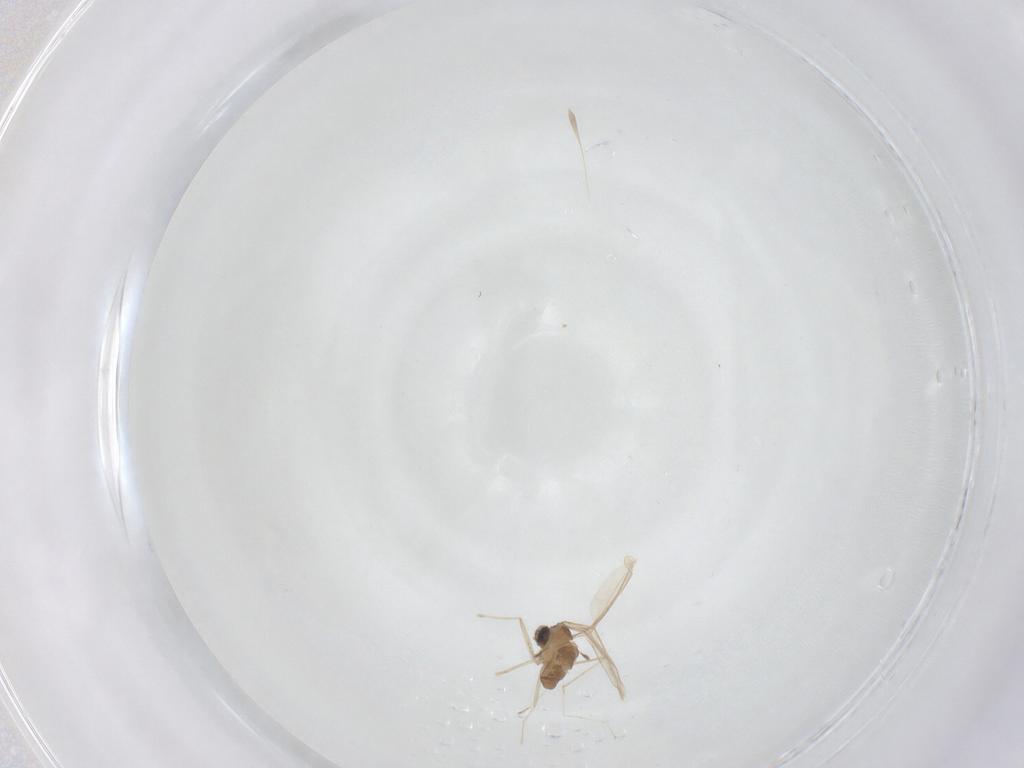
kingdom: Animalia
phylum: Arthropoda
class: Insecta
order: Diptera
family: Cecidomyiidae
